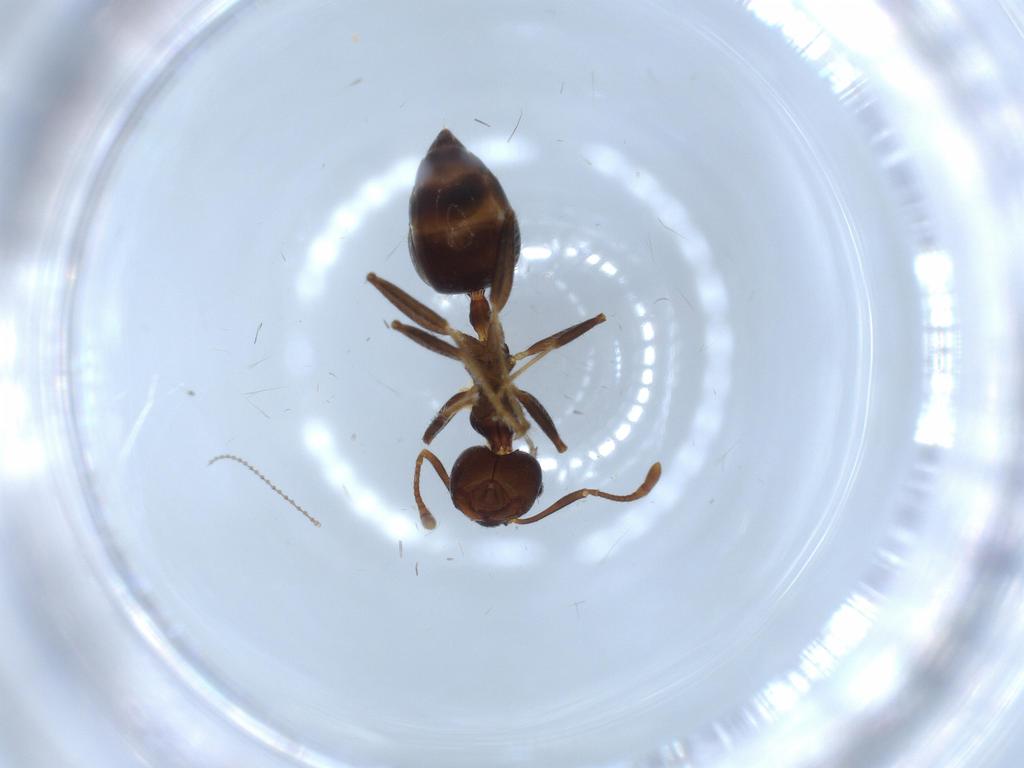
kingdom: Animalia
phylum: Arthropoda
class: Insecta
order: Hymenoptera
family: Formicidae
